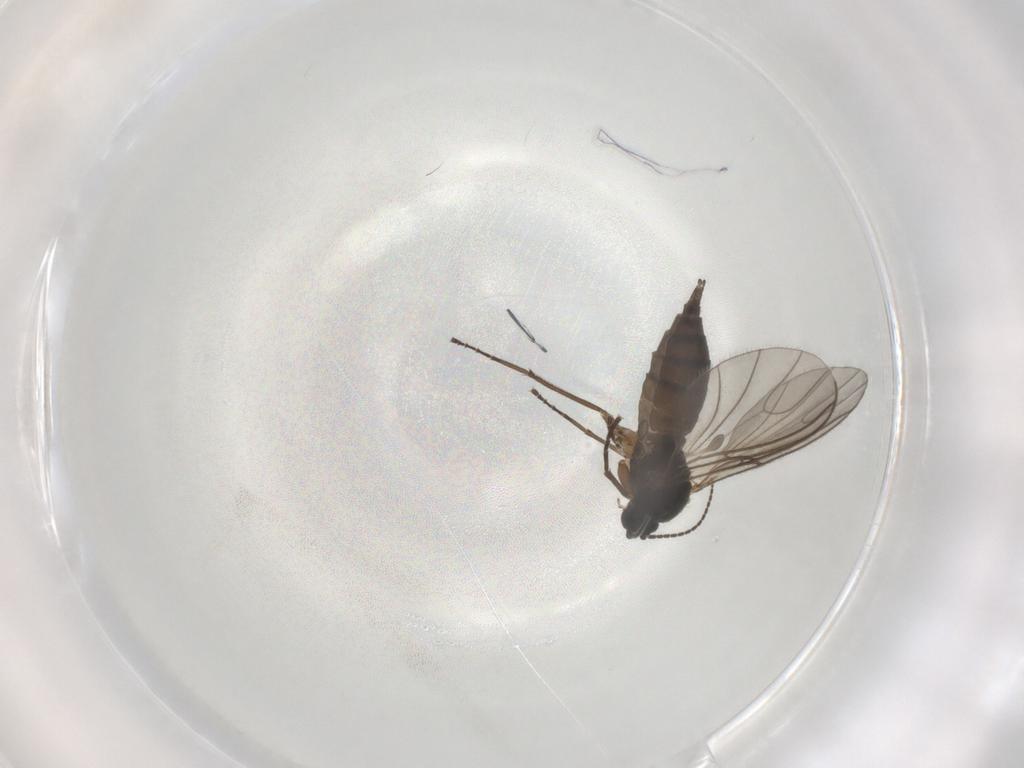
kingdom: Animalia
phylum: Arthropoda
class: Insecta
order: Diptera
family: Sciaridae
